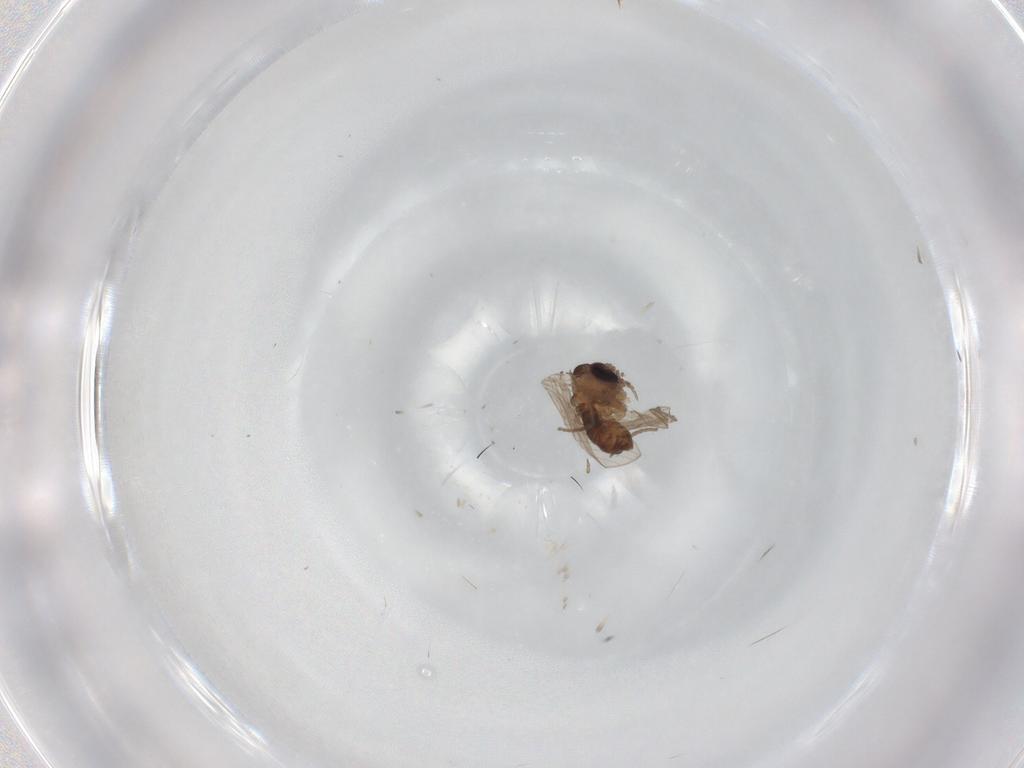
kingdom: Animalia
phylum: Arthropoda
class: Insecta
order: Diptera
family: Psychodidae
